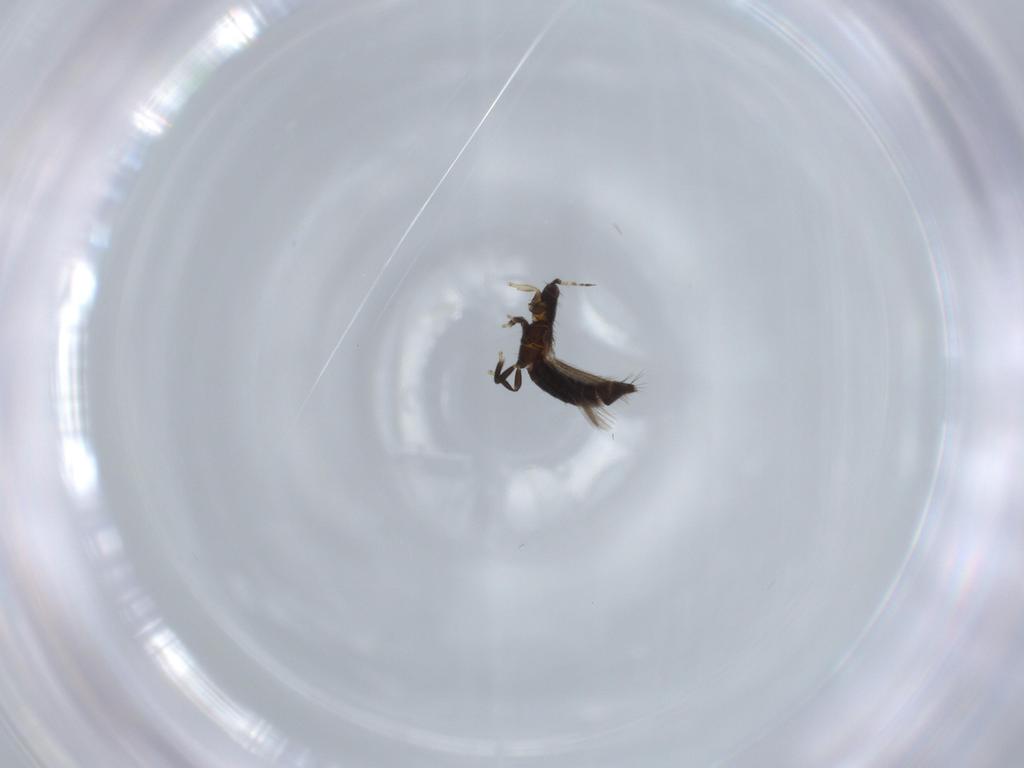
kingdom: Animalia
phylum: Arthropoda
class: Insecta
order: Thysanoptera
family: Thripidae
